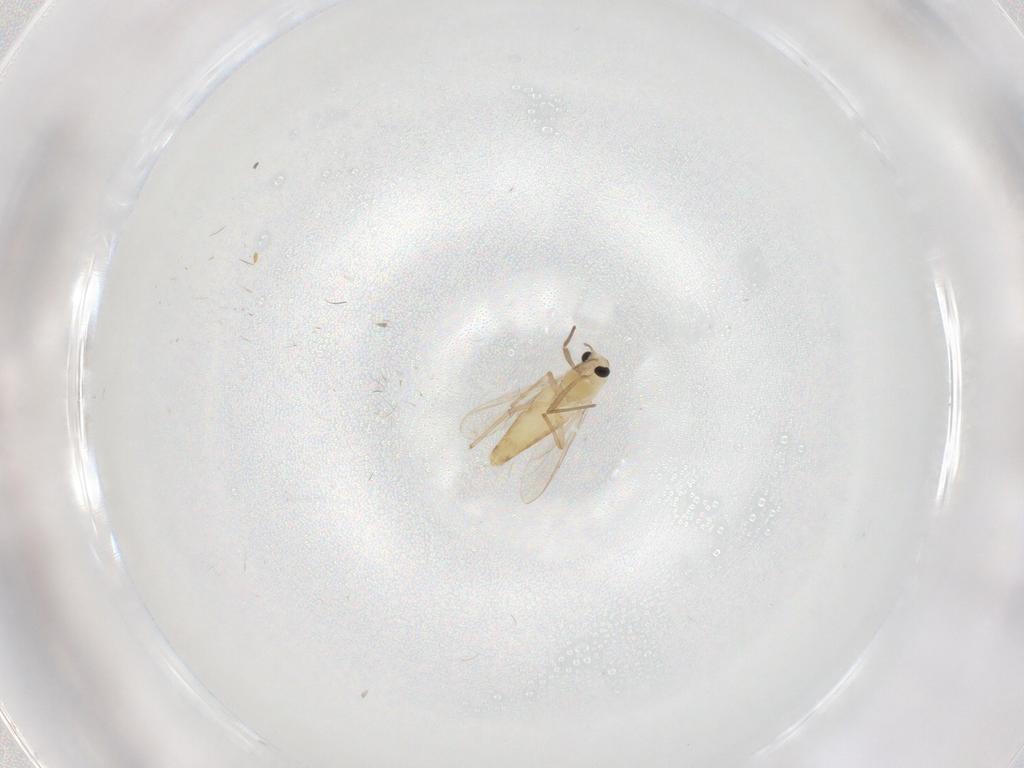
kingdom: Animalia
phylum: Arthropoda
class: Insecta
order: Diptera
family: Chironomidae
